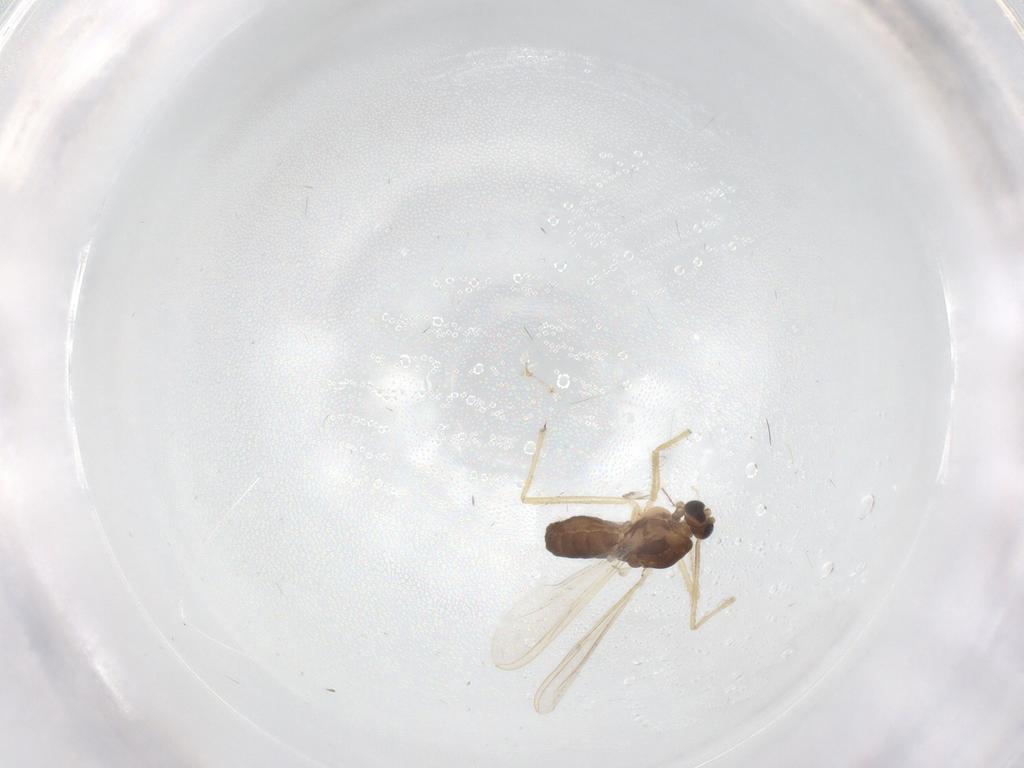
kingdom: Animalia
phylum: Arthropoda
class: Insecta
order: Diptera
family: Chironomidae
